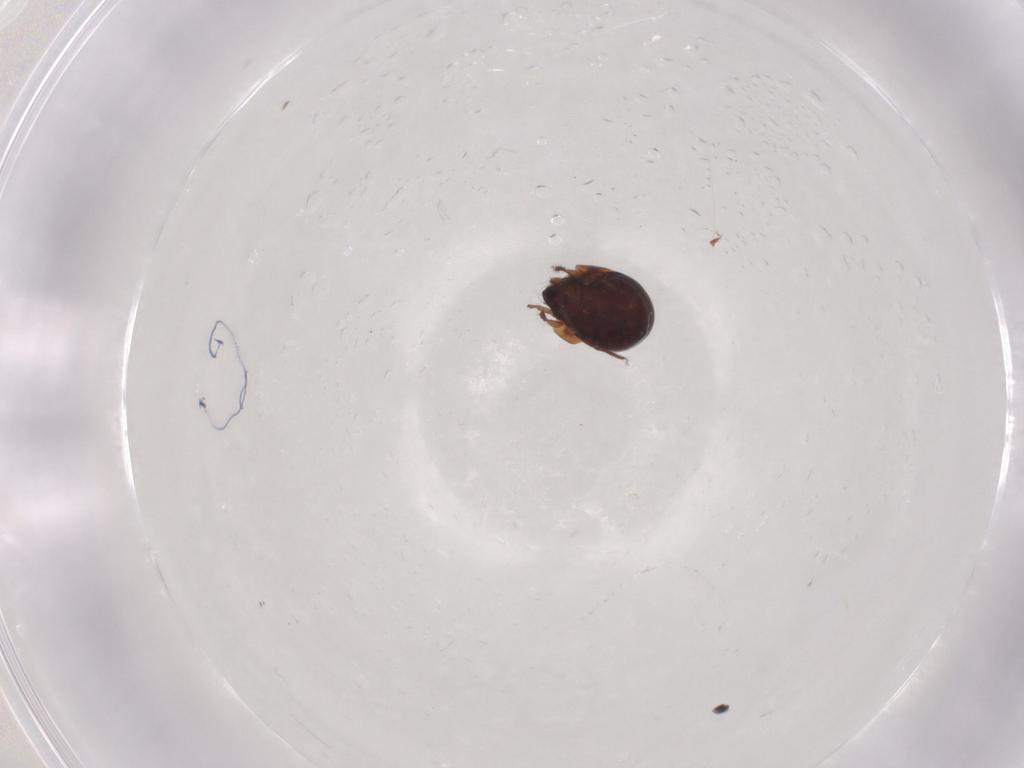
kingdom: Animalia
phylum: Arthropoda
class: Arachnida
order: Sarcoptiformes
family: Humerobatidae
